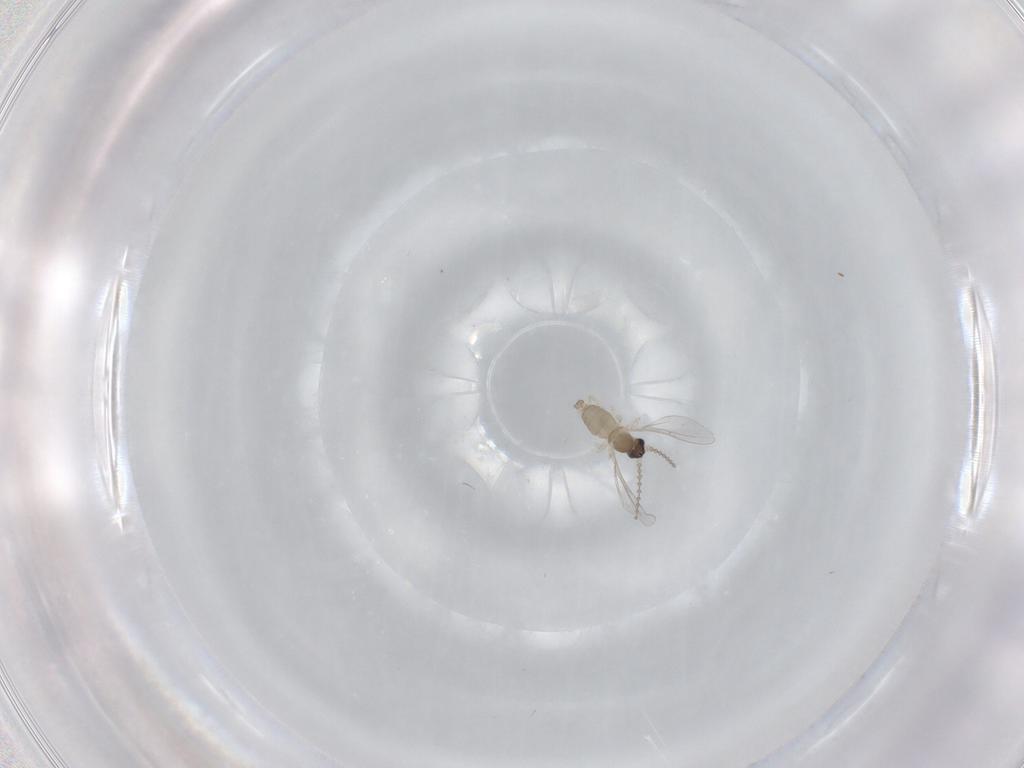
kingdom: Animalia
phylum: Arthropoda
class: Insecta
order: Diptera
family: Cecidomyiidae
